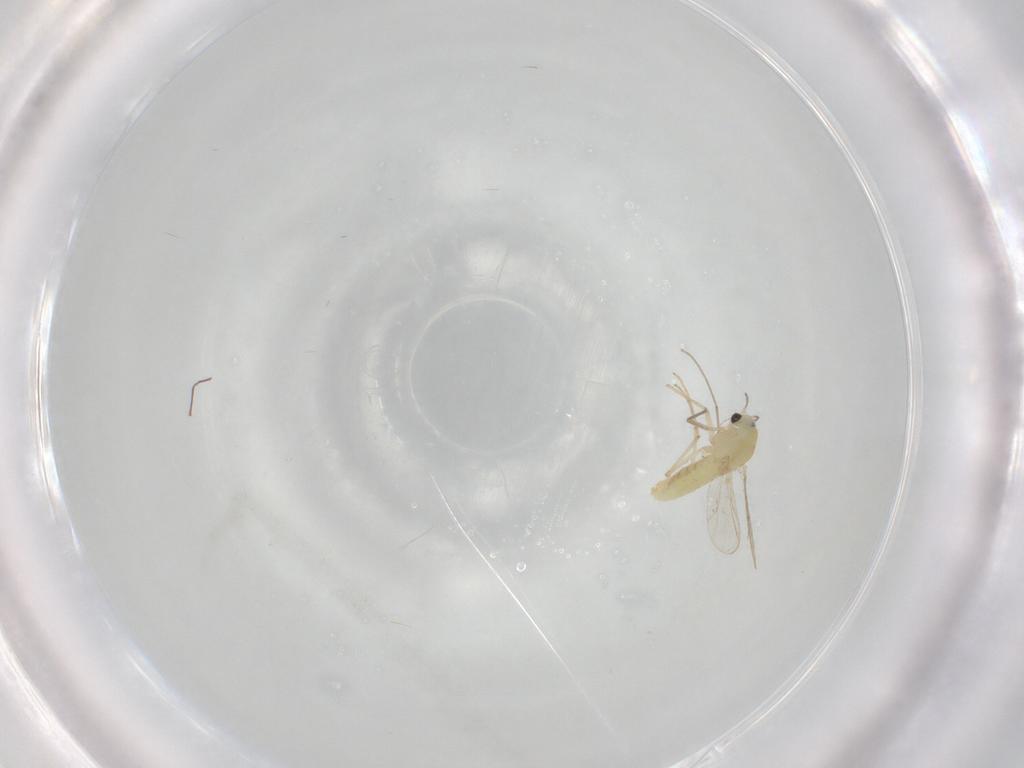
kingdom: Animalia
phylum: Arthropoda
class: Insecta
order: Diptera
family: Chironomidae
